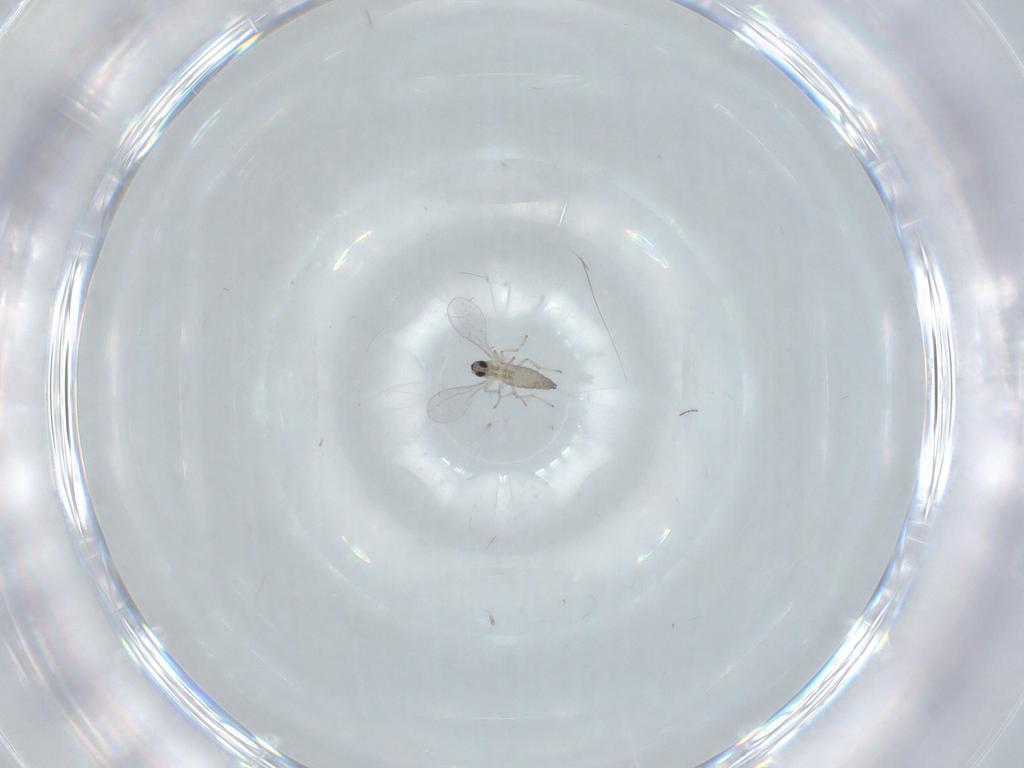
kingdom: Animalia
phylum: Arthropoda
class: Insecta
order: Diptera
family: Cecidomyiidae
